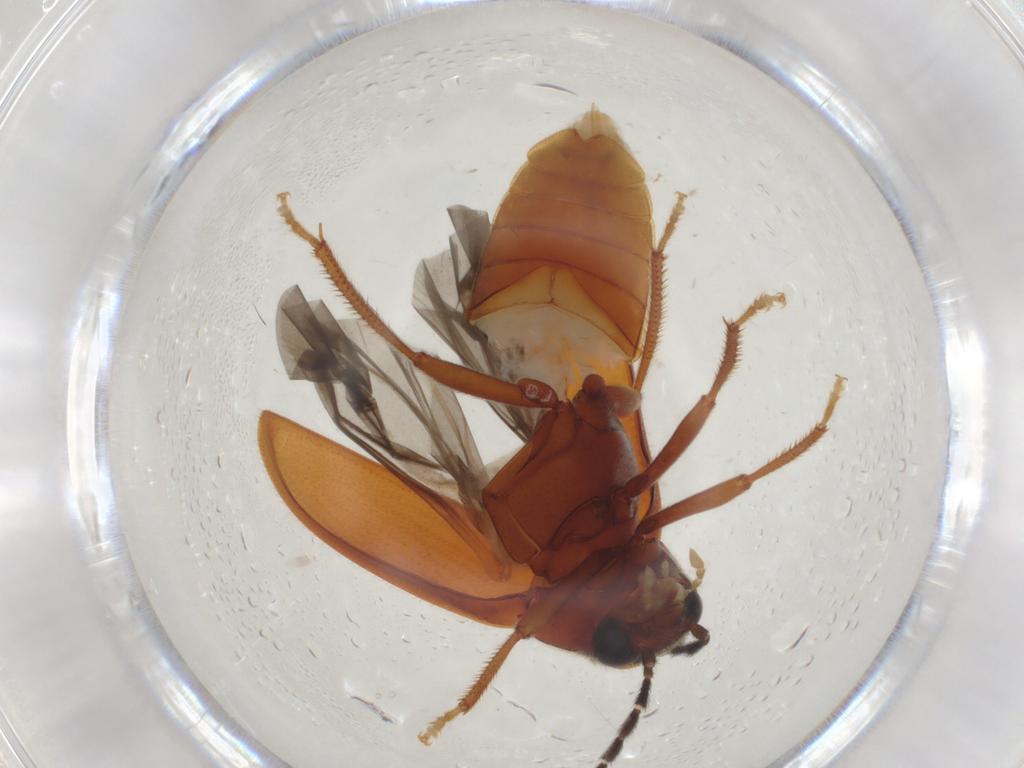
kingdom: Animalia
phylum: Arthropoda
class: Insecta
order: Coleoptera
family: Ptilodactylidae
